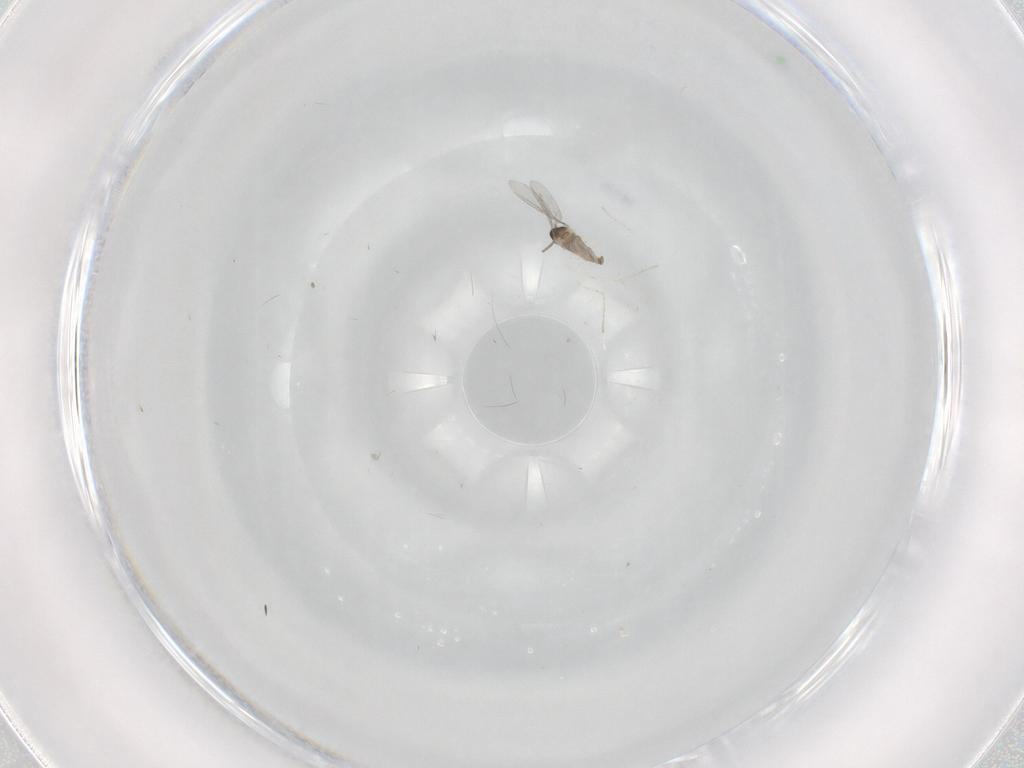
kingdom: Animalia
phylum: Arthropoda
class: Insecta
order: Diptera
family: Cecidomyiidae
